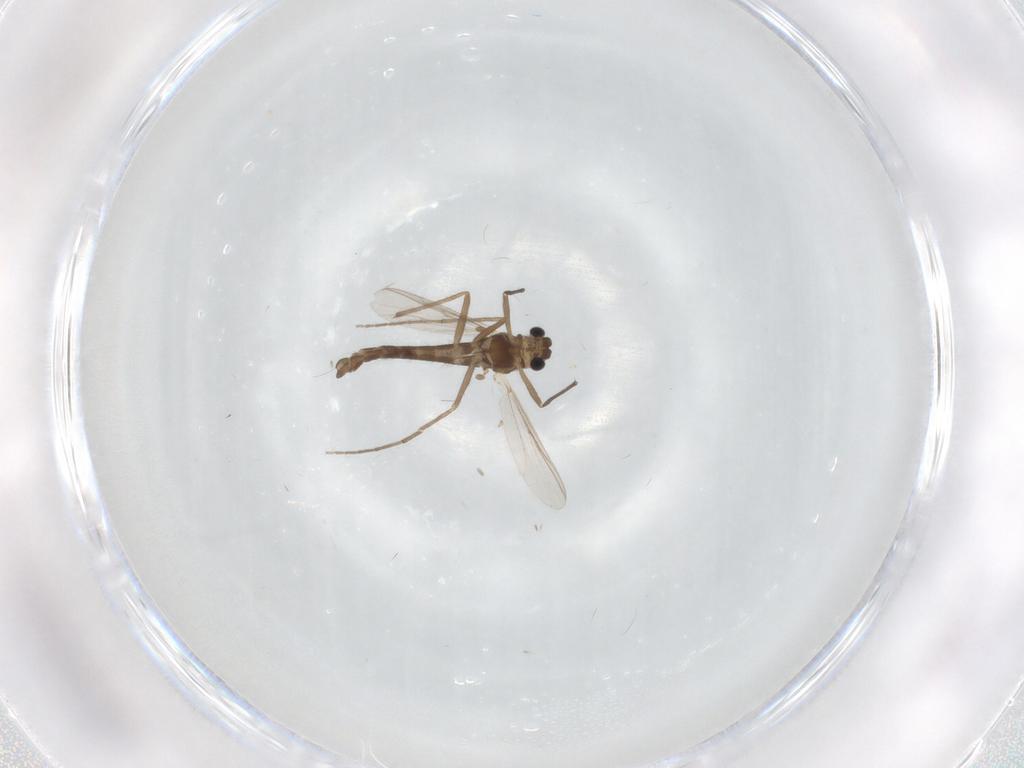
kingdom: Animalia
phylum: Arthropoda
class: Insecta
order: Diptera
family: Chironomidae
